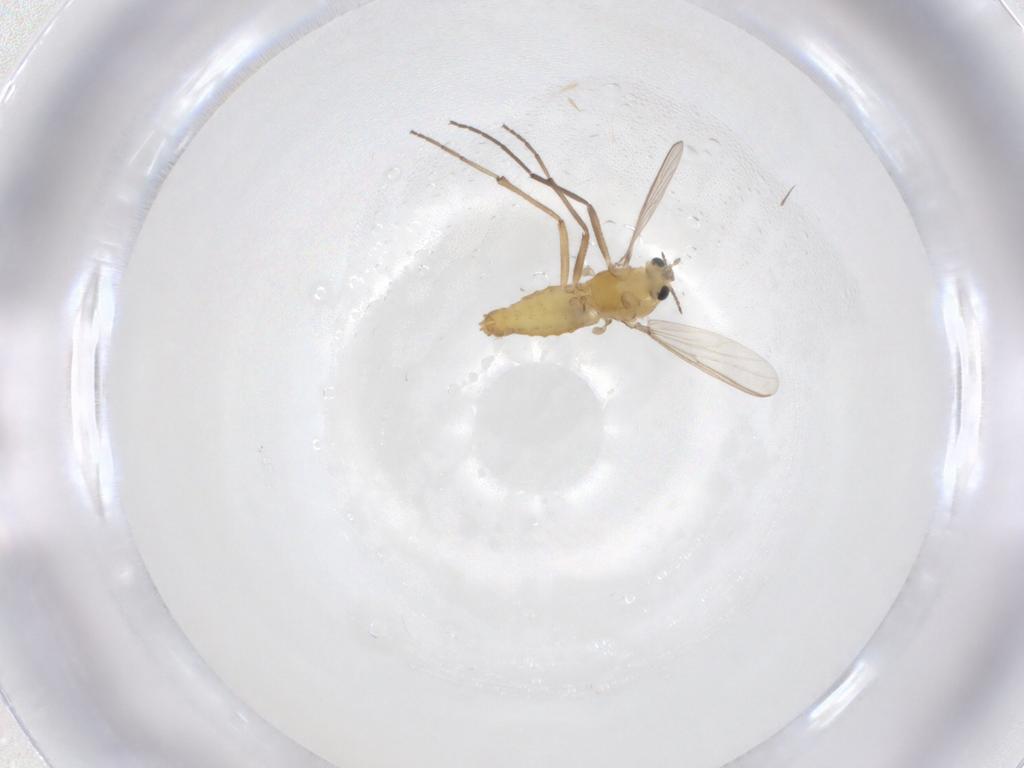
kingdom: Animalia
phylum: Arthropoda
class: Insecta
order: Diptera
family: Chironomidae
